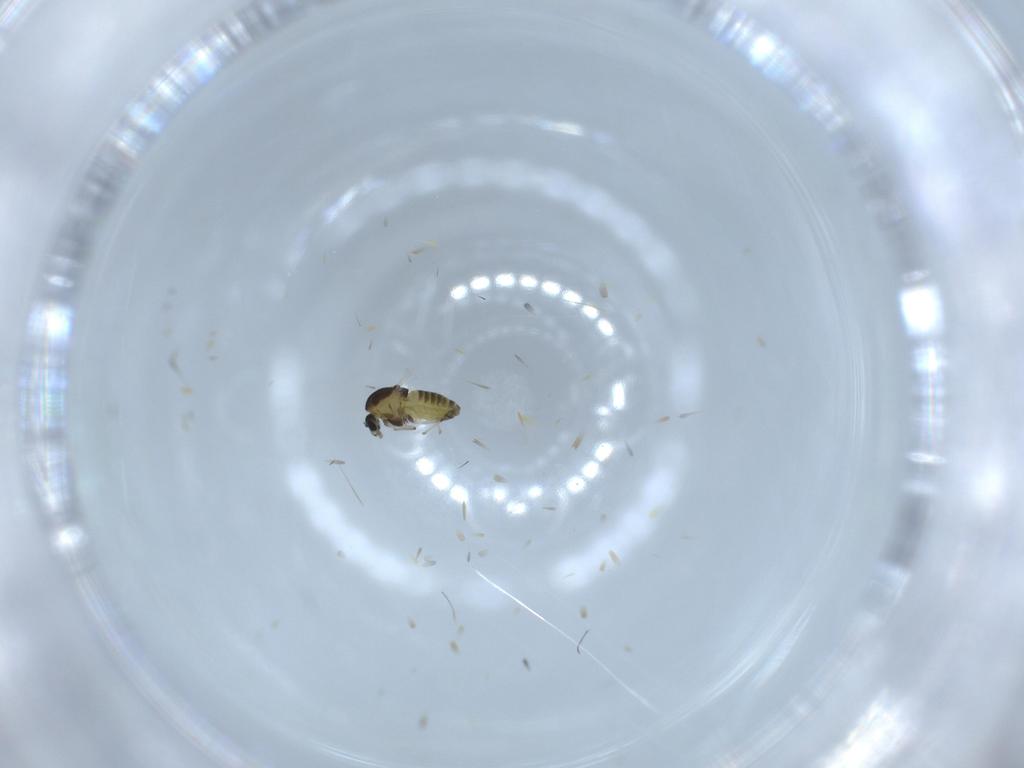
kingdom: Animalia
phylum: Arthropoda
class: Insecta
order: Diptera
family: Chironomidae
